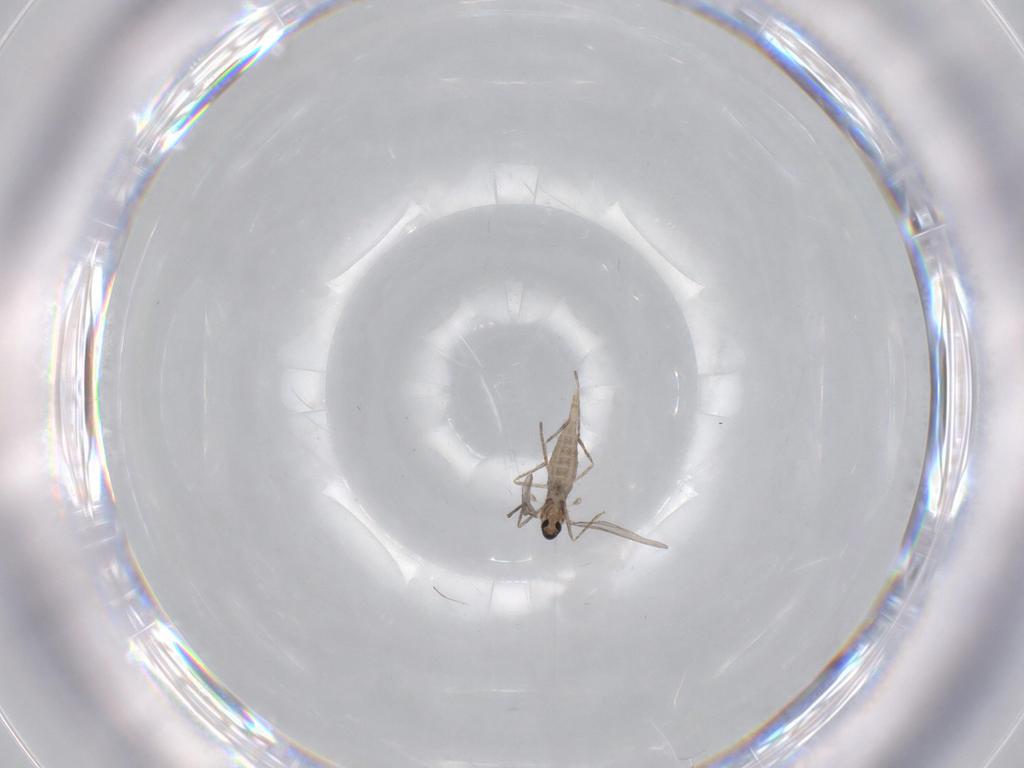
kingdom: Animalia
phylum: Arthropoda
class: Insecta
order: Diptera
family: Chironomidae
